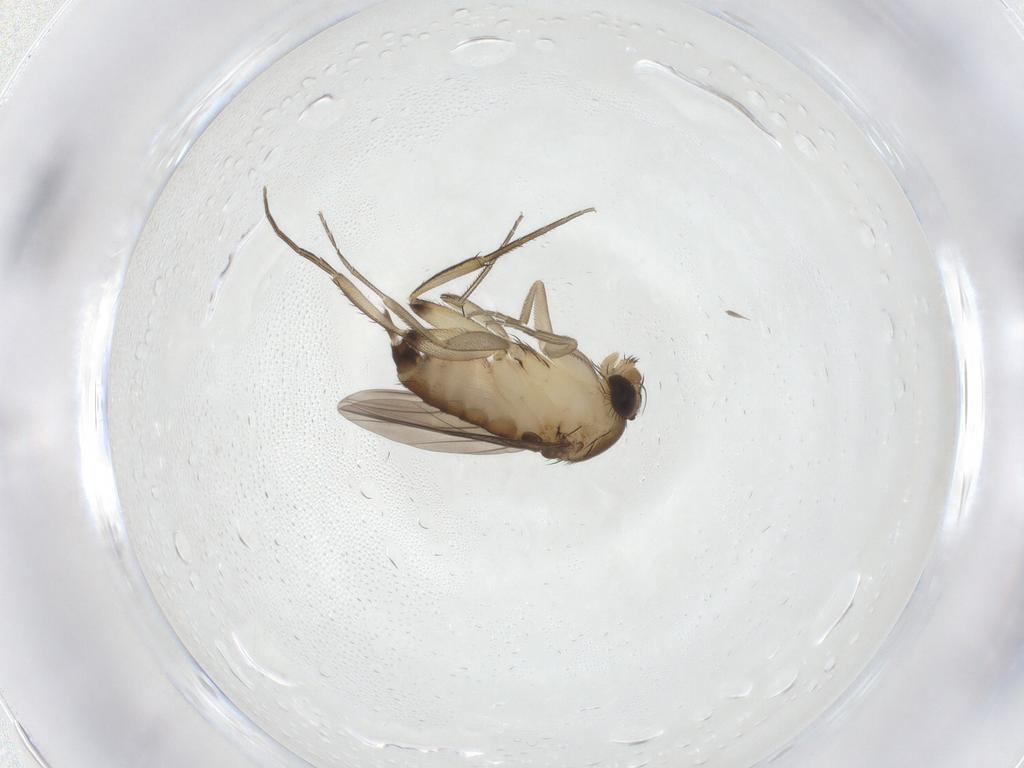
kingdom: Animalia
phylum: Arthropoda
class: Insecta
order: Diptera
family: Phoridae
